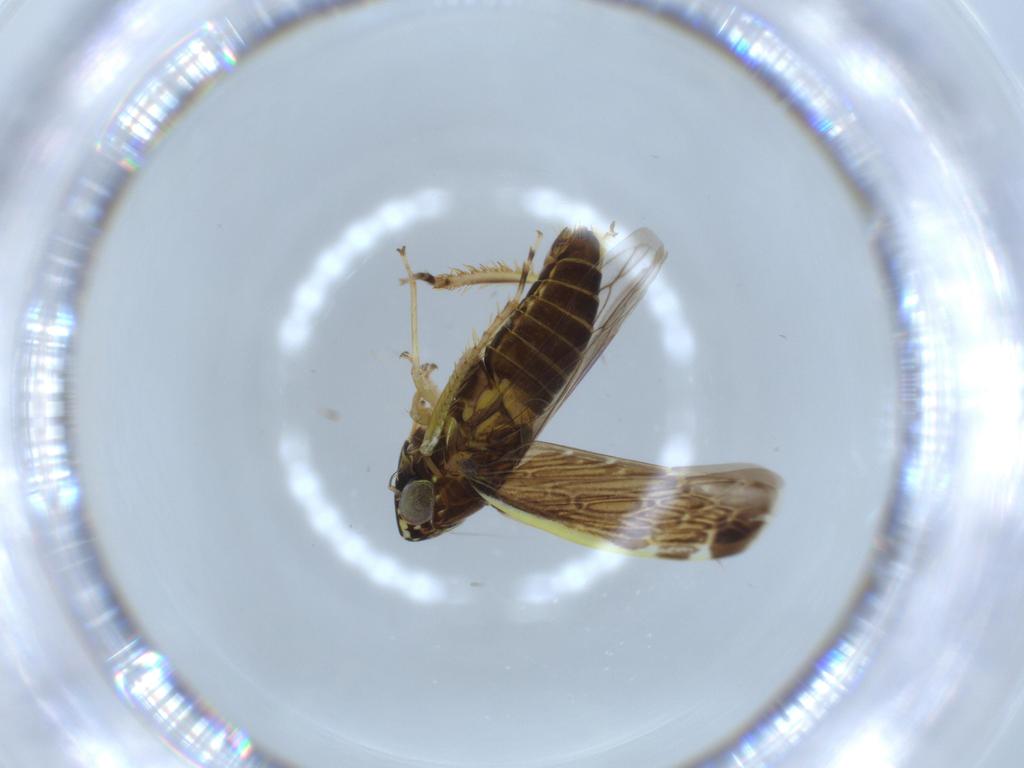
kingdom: Animalia
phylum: Arthropoda
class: Insecta
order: Hemiptera
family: Cicadellidae
